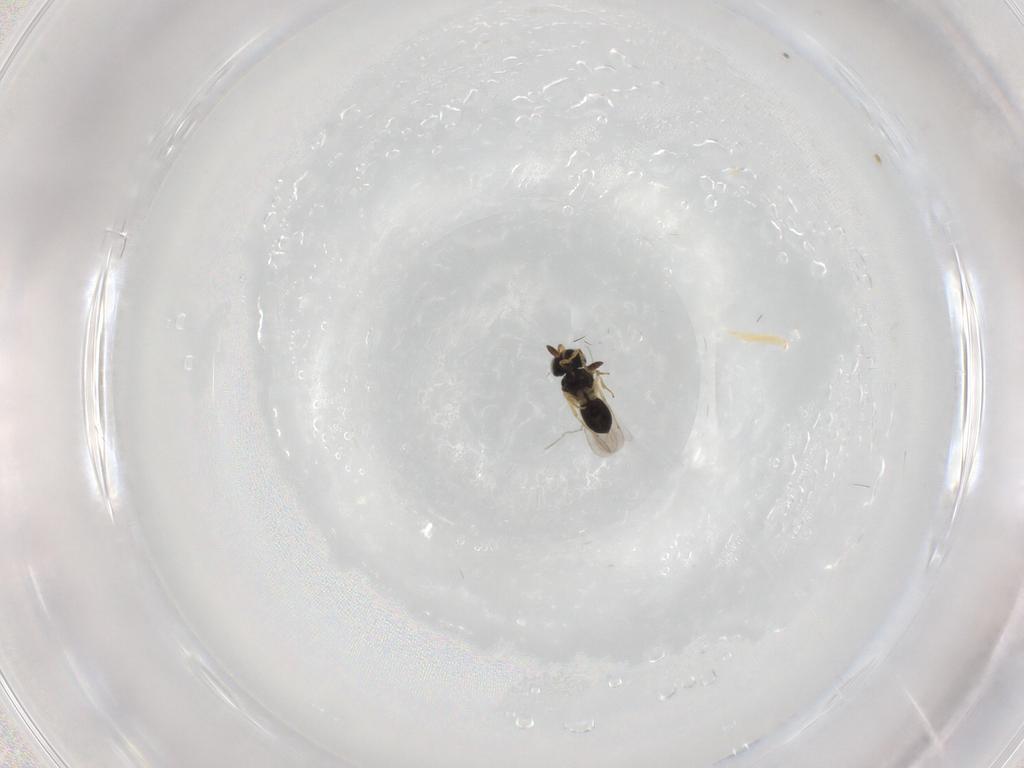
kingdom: Animalia
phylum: Arthropoda
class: Insecta
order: Hymenoptera
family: Scelionidae
